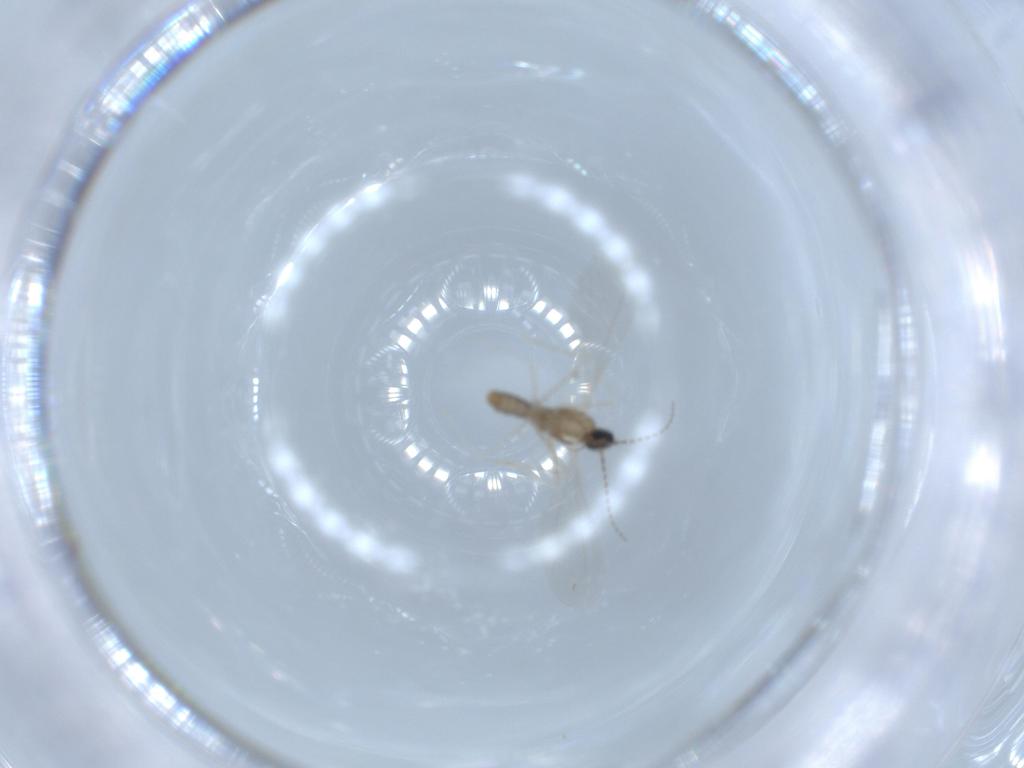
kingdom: Animalia
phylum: Arthropoda
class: Insecta
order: Diptera
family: Cecidomyiidae
